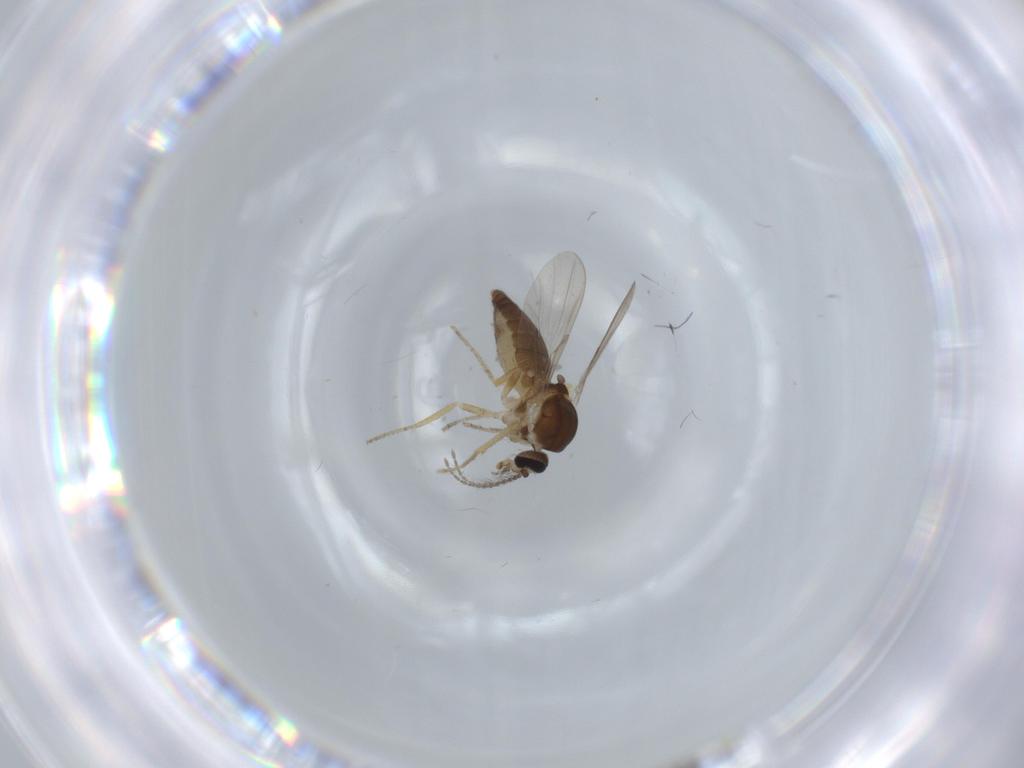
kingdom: Animalia
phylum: Arthropoda
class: Insecta
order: Diptera
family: Ceratopogonidae
